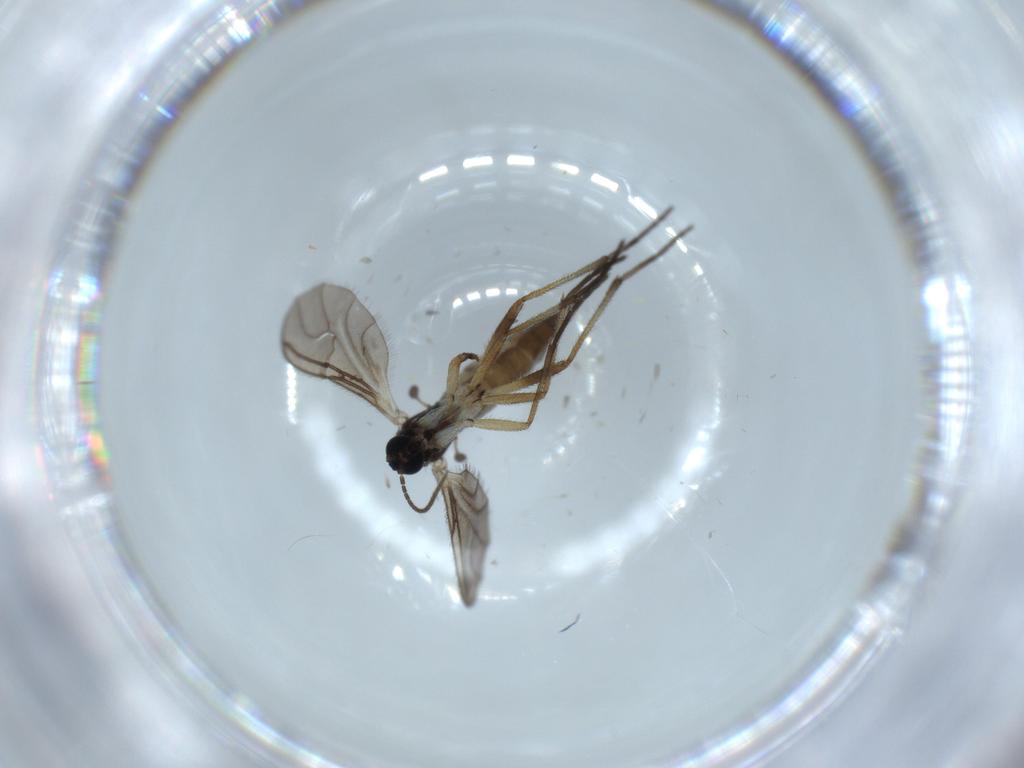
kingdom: Animalia
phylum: Arthropoda
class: Insecta
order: Diptera
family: Sciaridae
